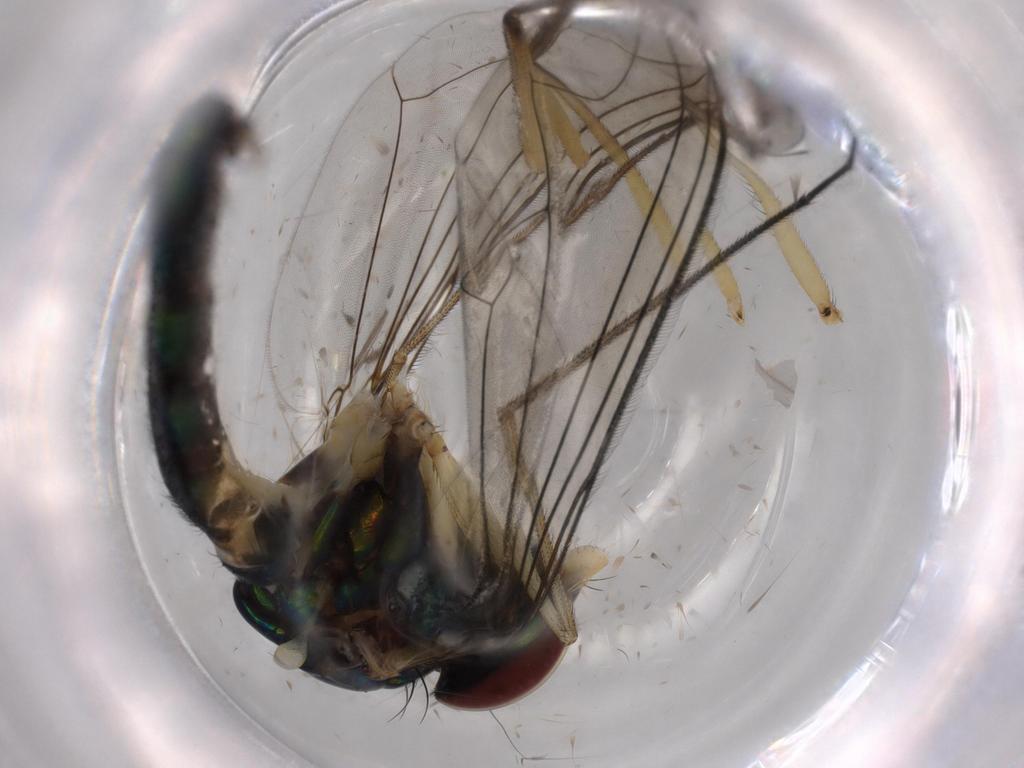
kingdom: Animalia
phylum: Arthropoda
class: Insecta
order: Diptera
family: Dolichopodidae
